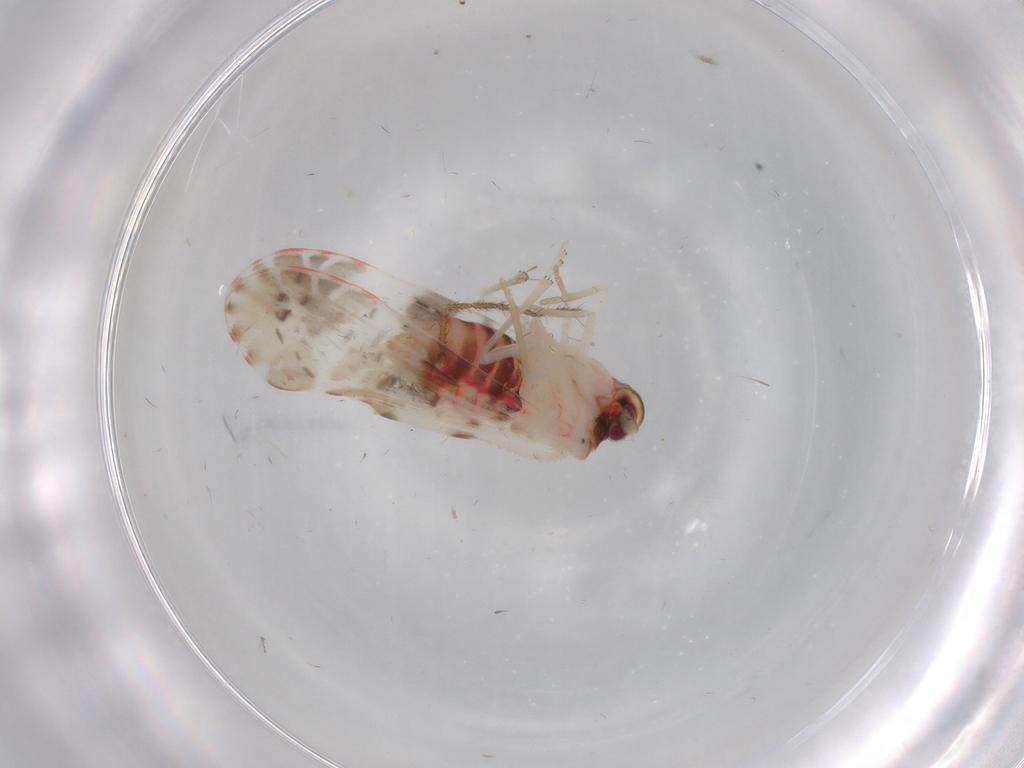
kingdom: Animalia
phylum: Arthropoda
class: Insecta
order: Hemiptera
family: Derbidae
